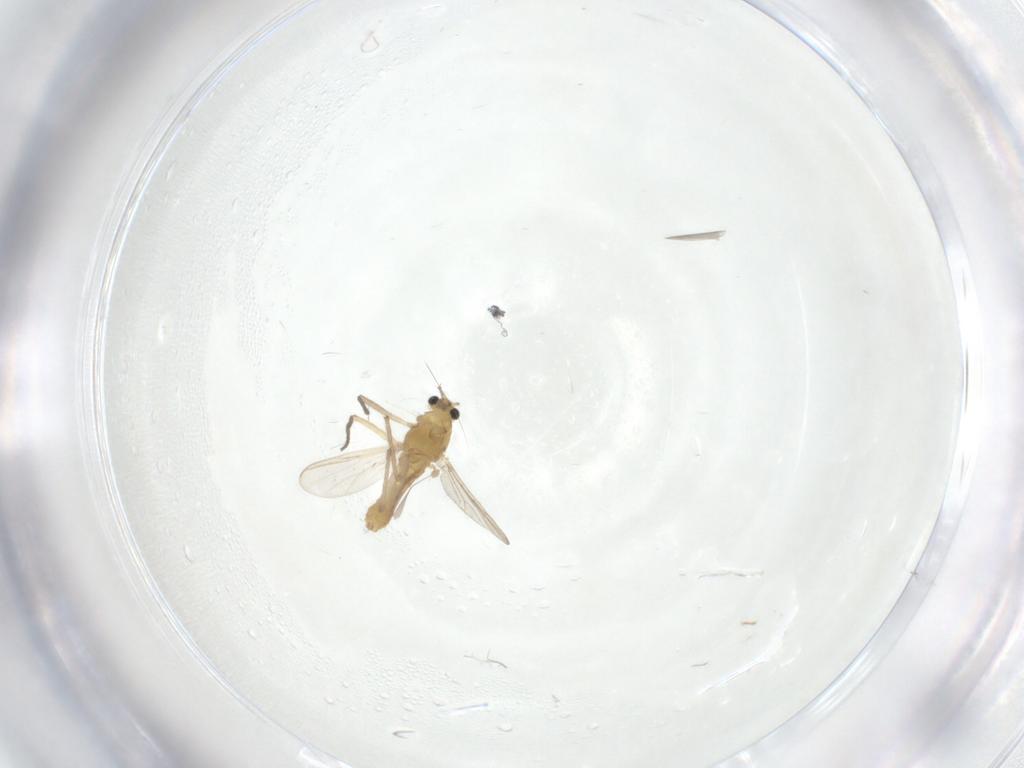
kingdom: Animalia
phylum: Arthropoda
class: Insecta
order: Diptera
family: Chironomidae
